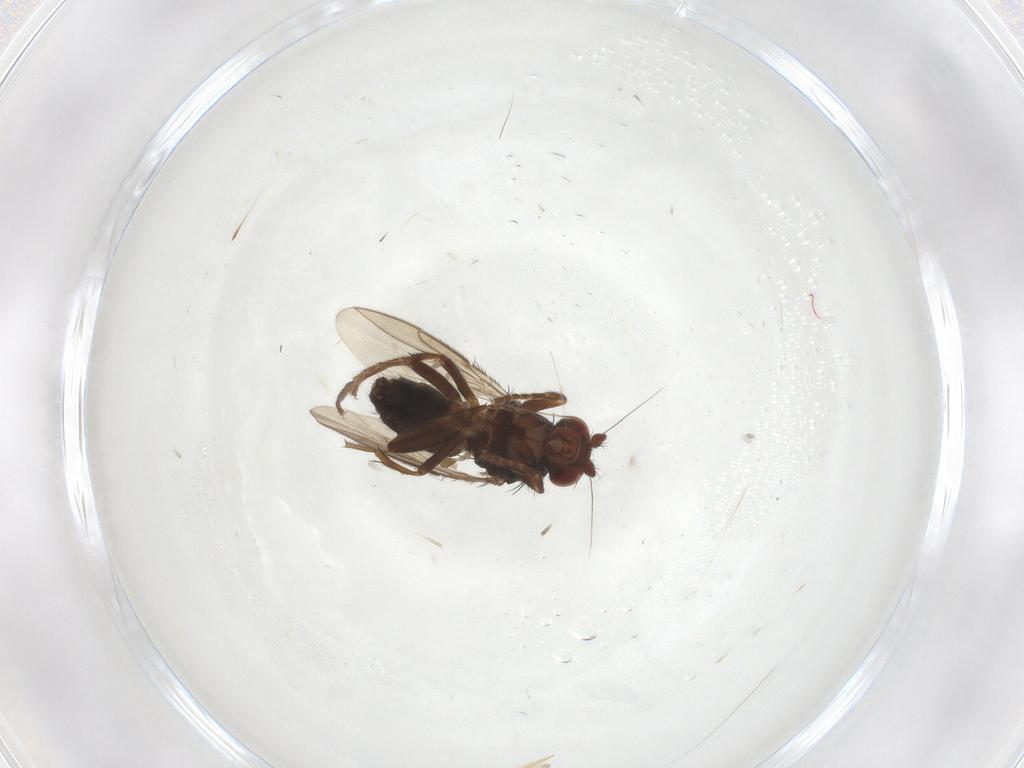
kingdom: Animalia
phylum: Arthropoda
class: Insecta
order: Diptera
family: Sphaeroceridae
